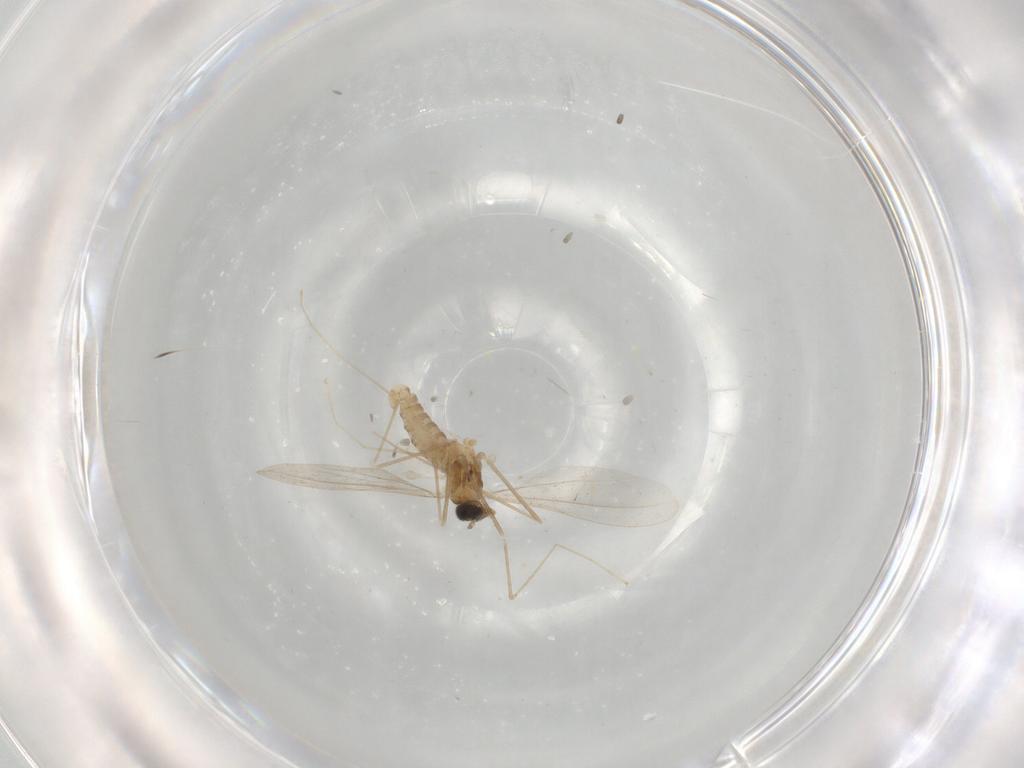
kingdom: Animalia
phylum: Arthropoda
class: Insecta
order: Diptera
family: Cecidomyiidae
